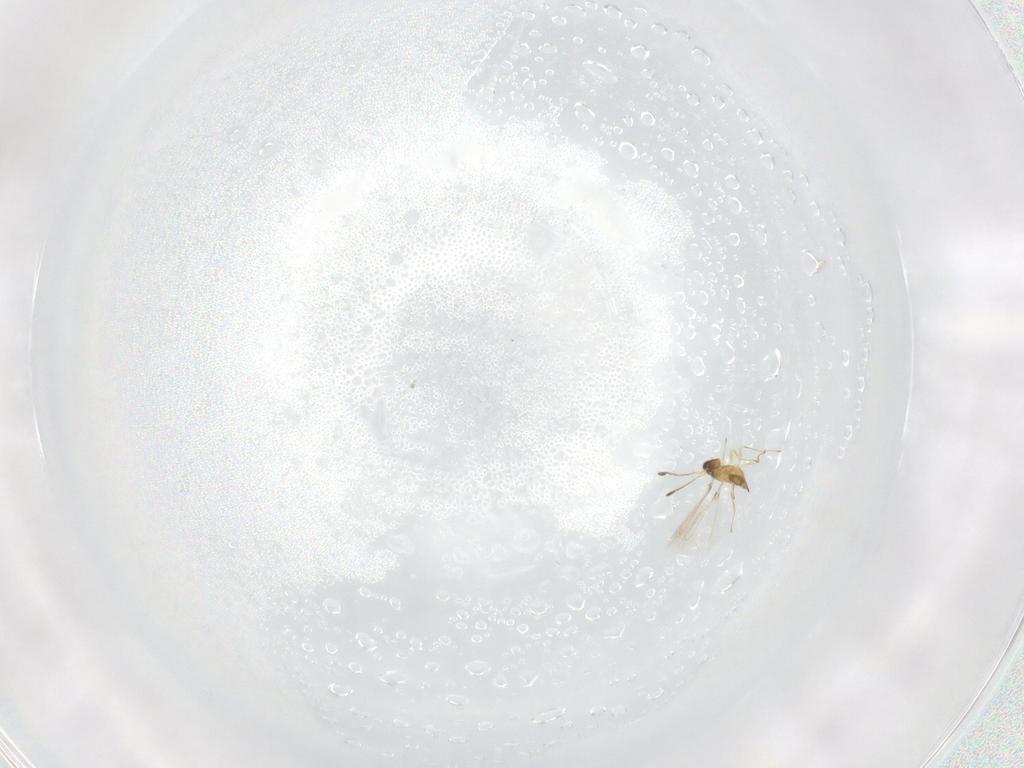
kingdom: Animalia
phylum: Arthropoda
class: Insecta
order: Hymenoptera
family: Mymaridae
